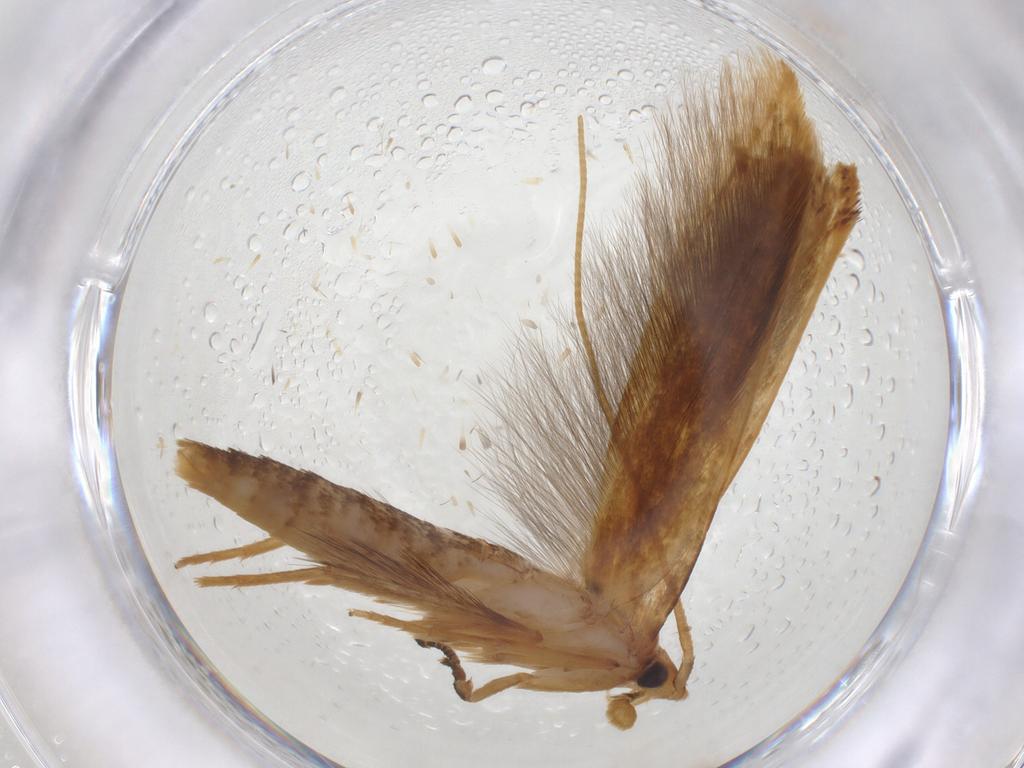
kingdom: Animalia
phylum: Arthropoda
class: Insecta
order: Lepidoptera
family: Tineidae
